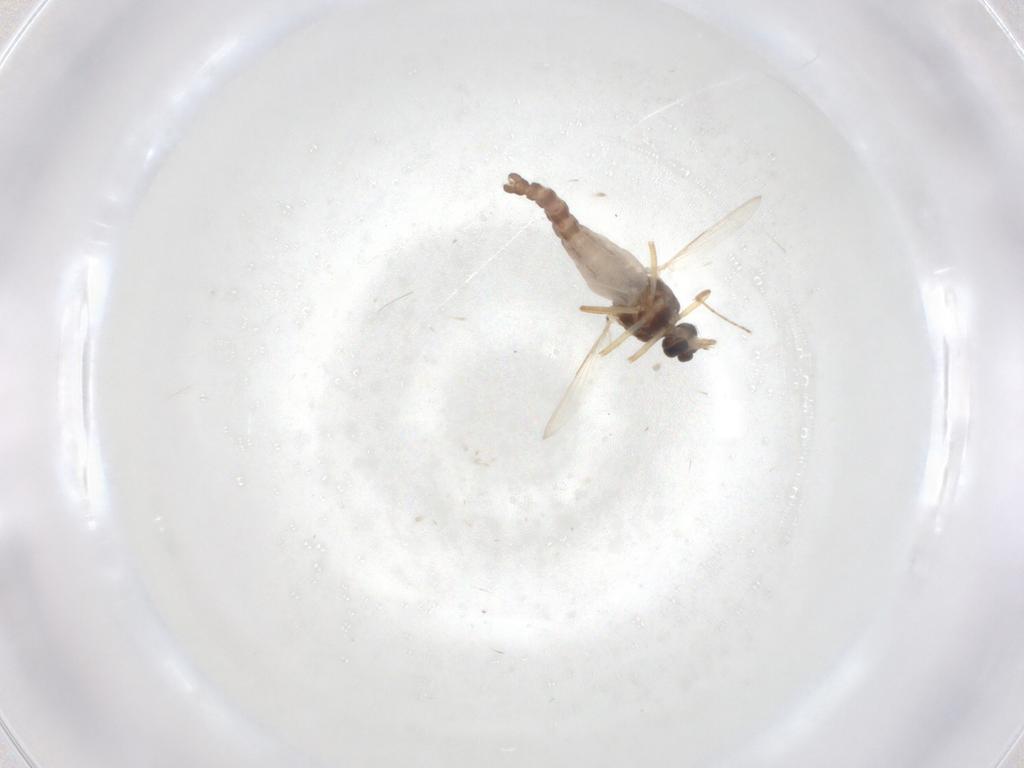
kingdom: Animalia
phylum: Arthropoda
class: Insecta
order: Diptera
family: Ceratopogonidae
